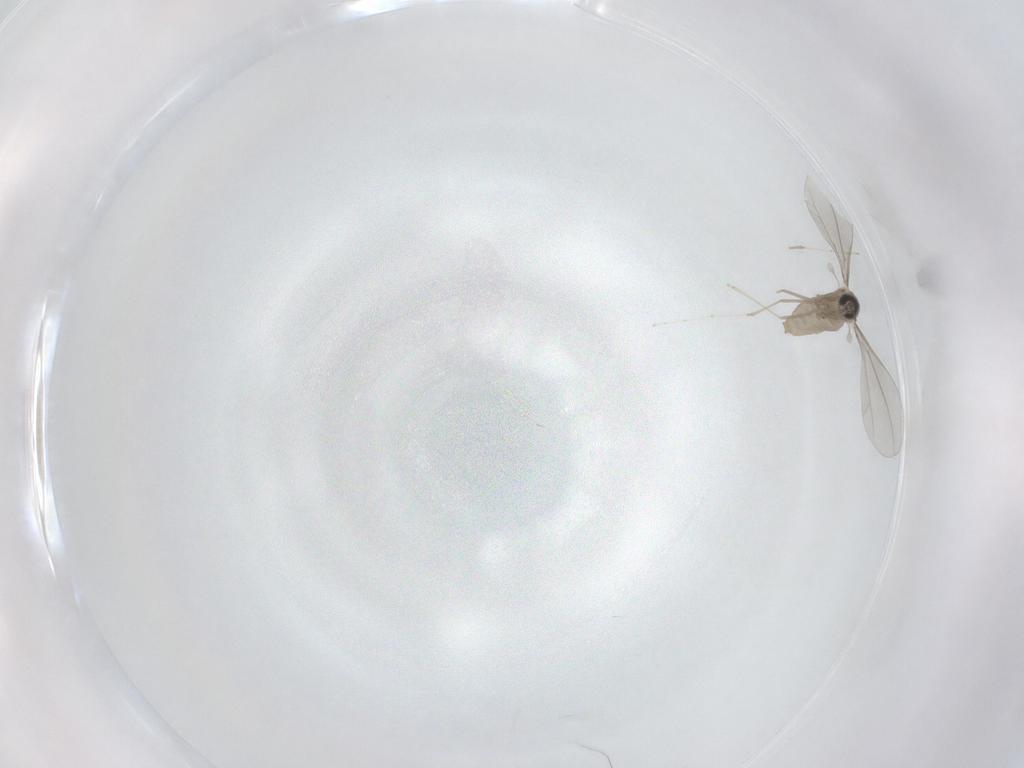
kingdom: Animalia
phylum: Arthropoda
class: Insecta
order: Diptera
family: Cecidomyiidae
